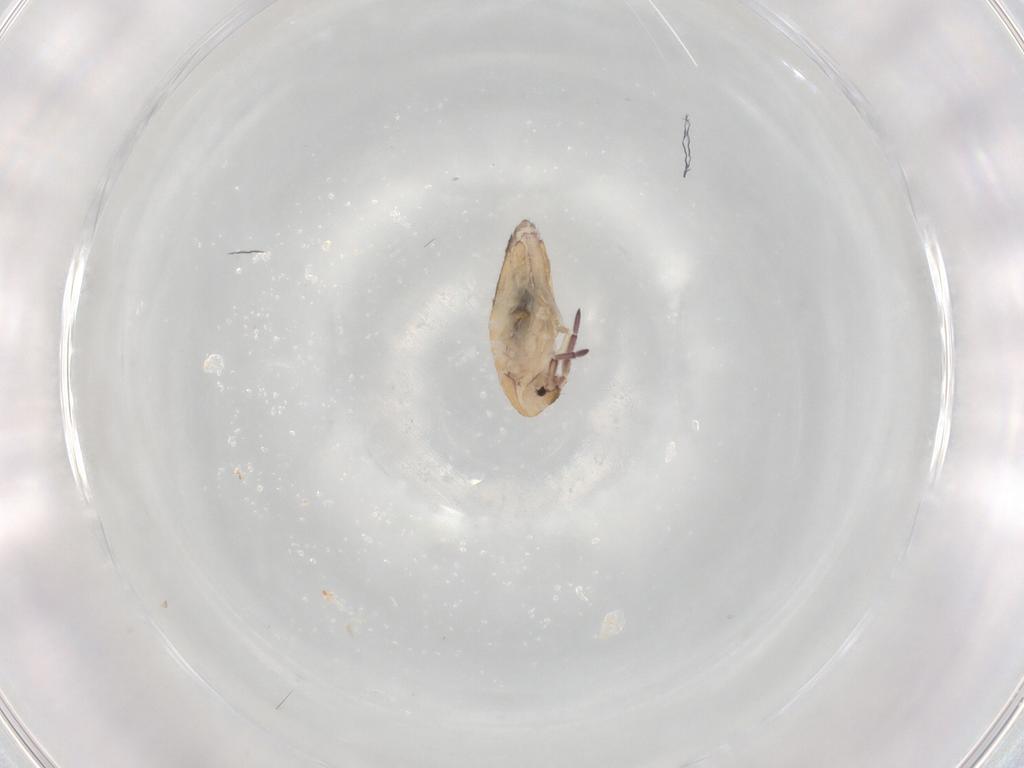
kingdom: Animalia
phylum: Arthropoda
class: Collembola
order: Entomobryomorpha
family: Entomobryidae
